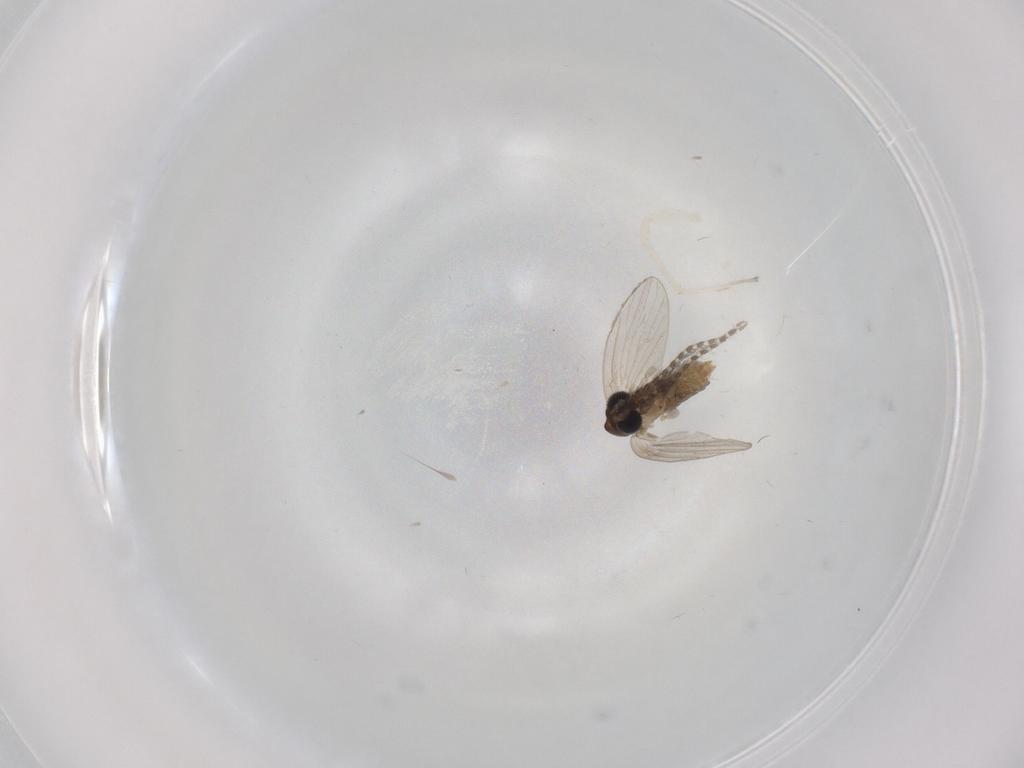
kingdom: Animalia
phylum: Arthropoda
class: Insecta
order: Diptera
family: Psychodidae
